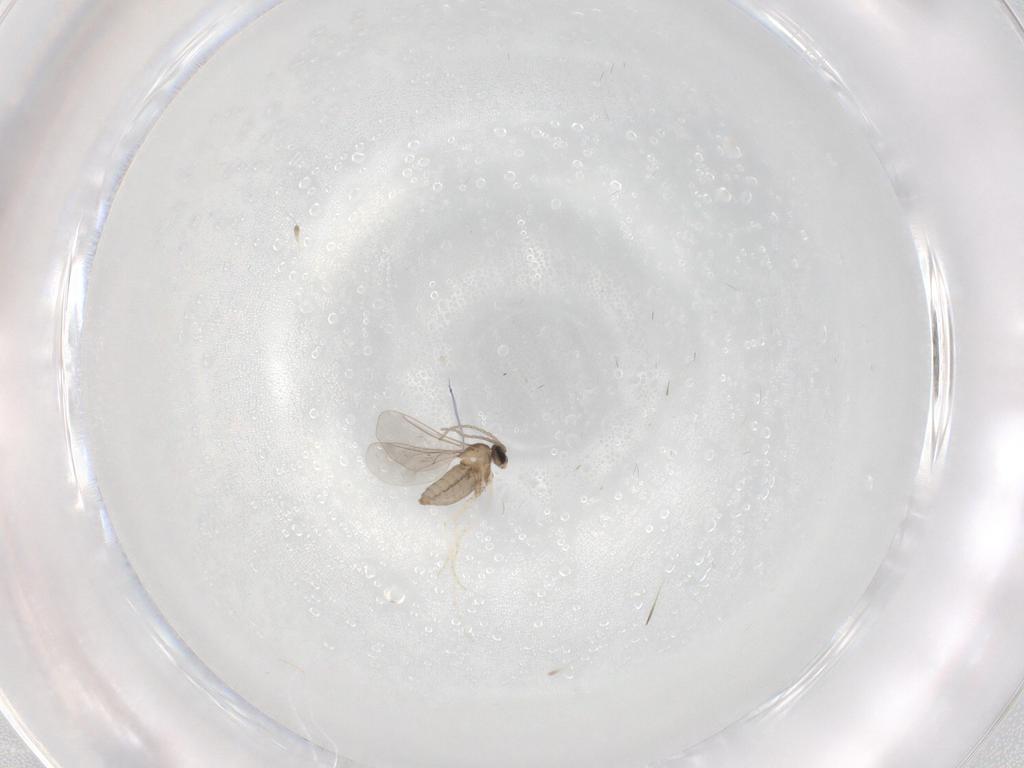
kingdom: Animalia
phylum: Arthropoda
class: Insecta
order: Diptera
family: Cecidomyiidae
